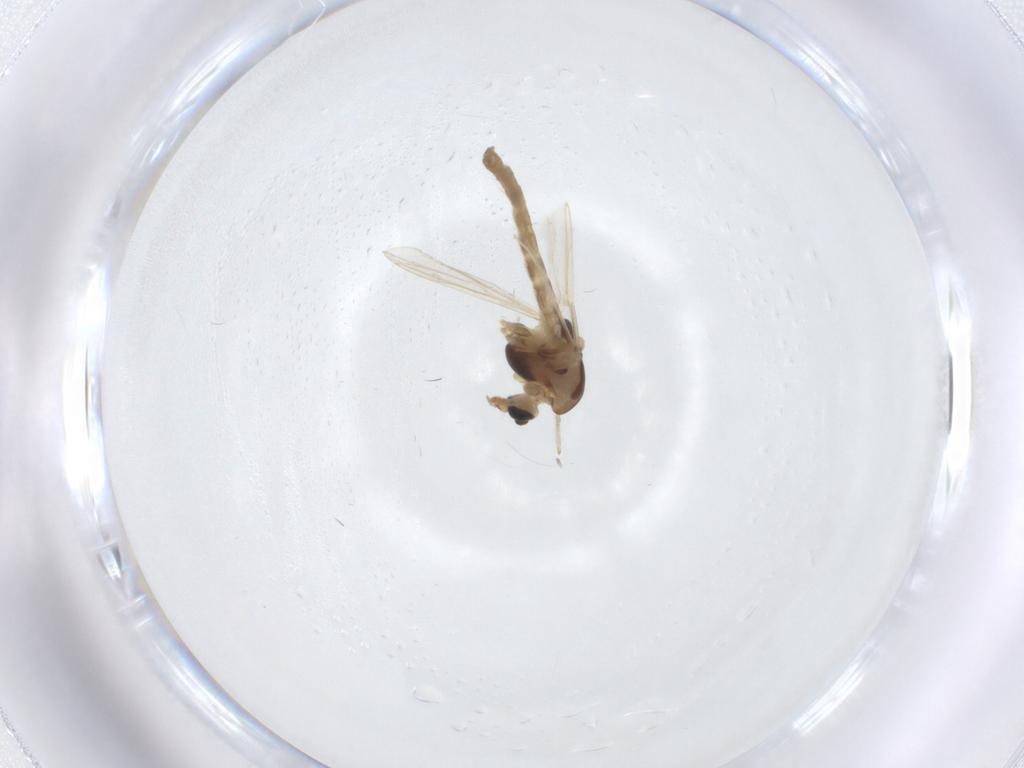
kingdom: Animalia
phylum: Arthropoda
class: Insecta
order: Diptera
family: Chironomidae
